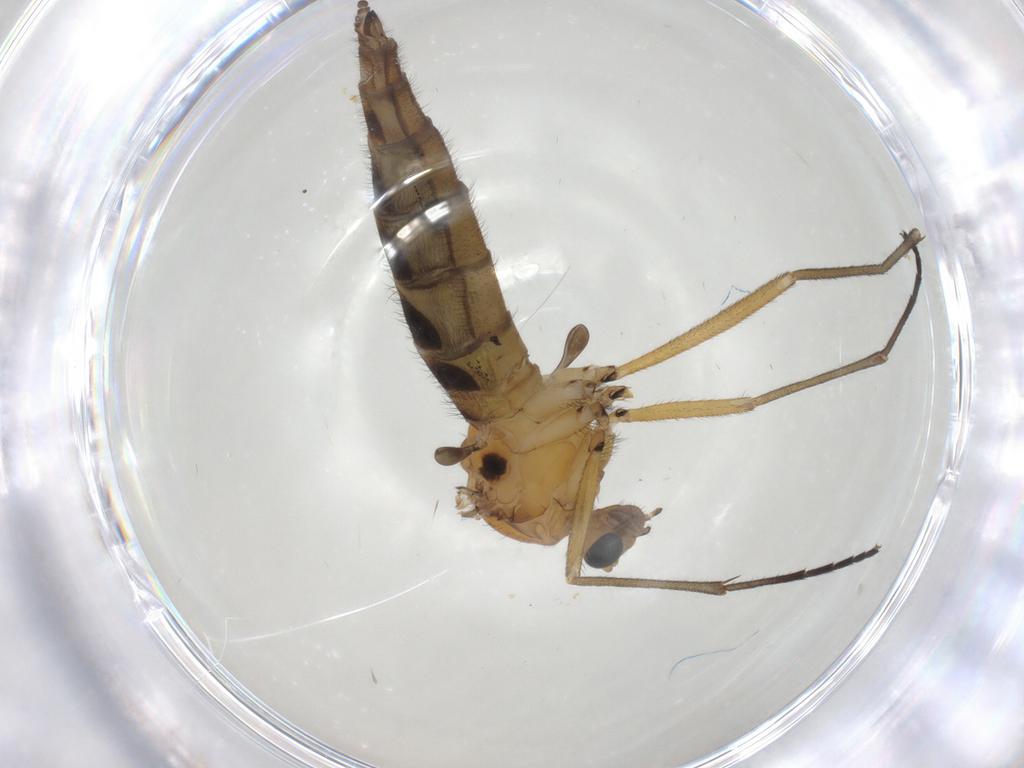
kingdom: Animalia
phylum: Arthropoda
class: Insecta
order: Diptera
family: Sciaridae
